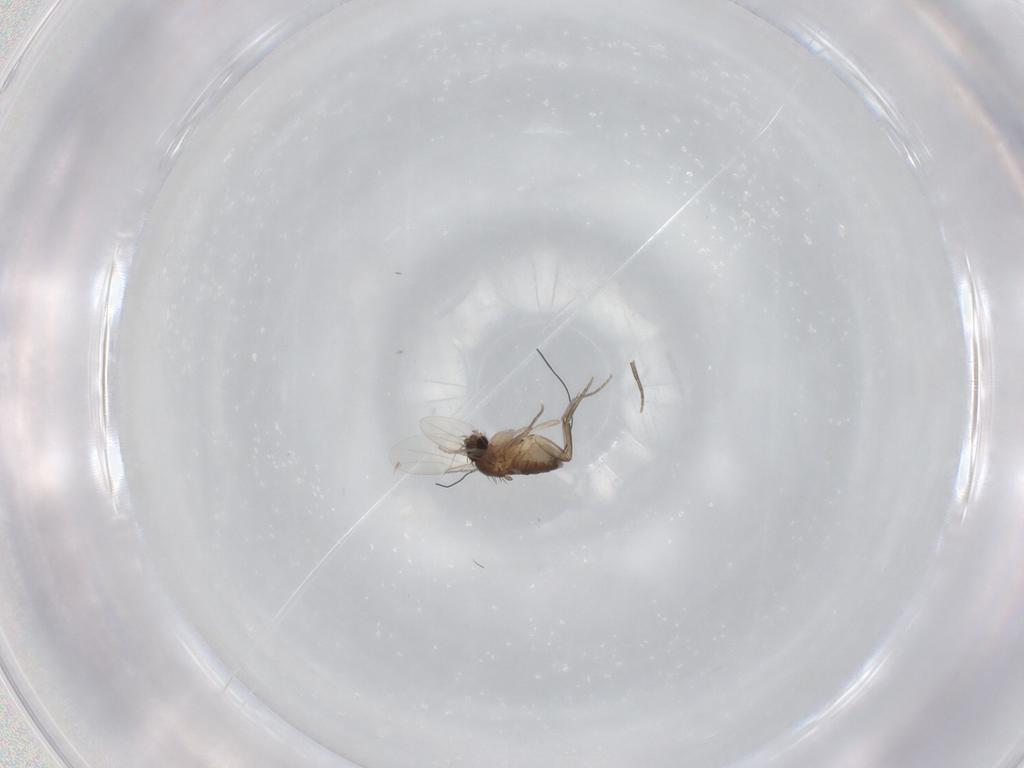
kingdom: Animalia
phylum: Arthropoda
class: Insecta
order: Diptera
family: Phoridae
